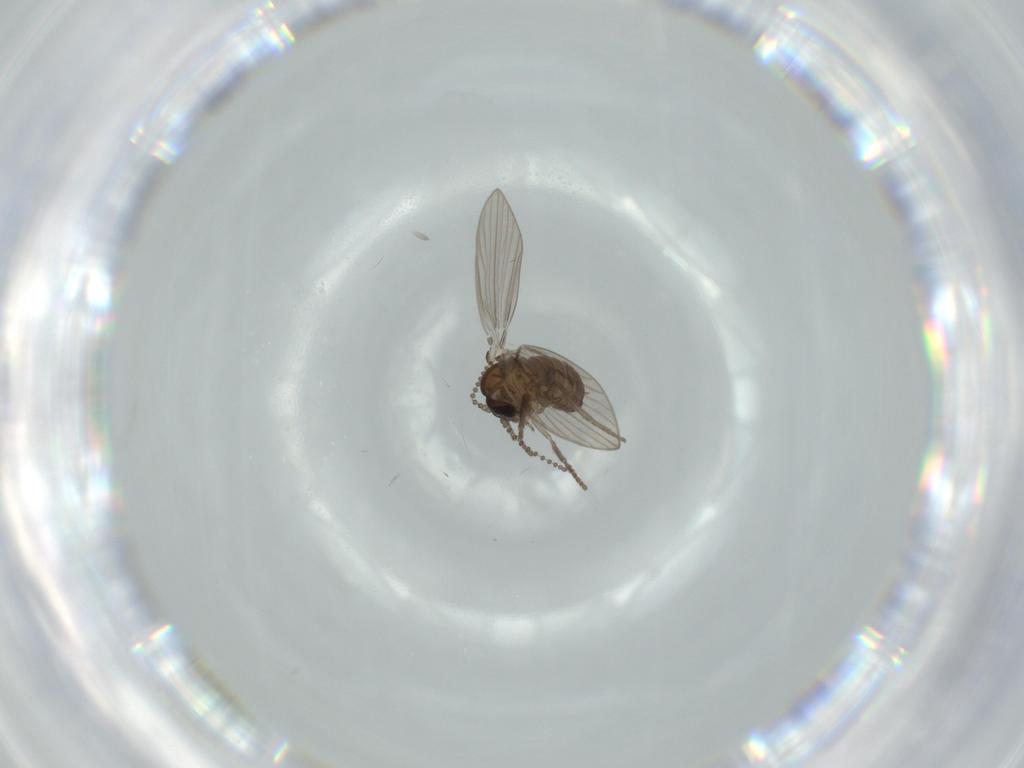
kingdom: Animalia
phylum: Arthropoda
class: Insecta
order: Diptera
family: Psychodidae
